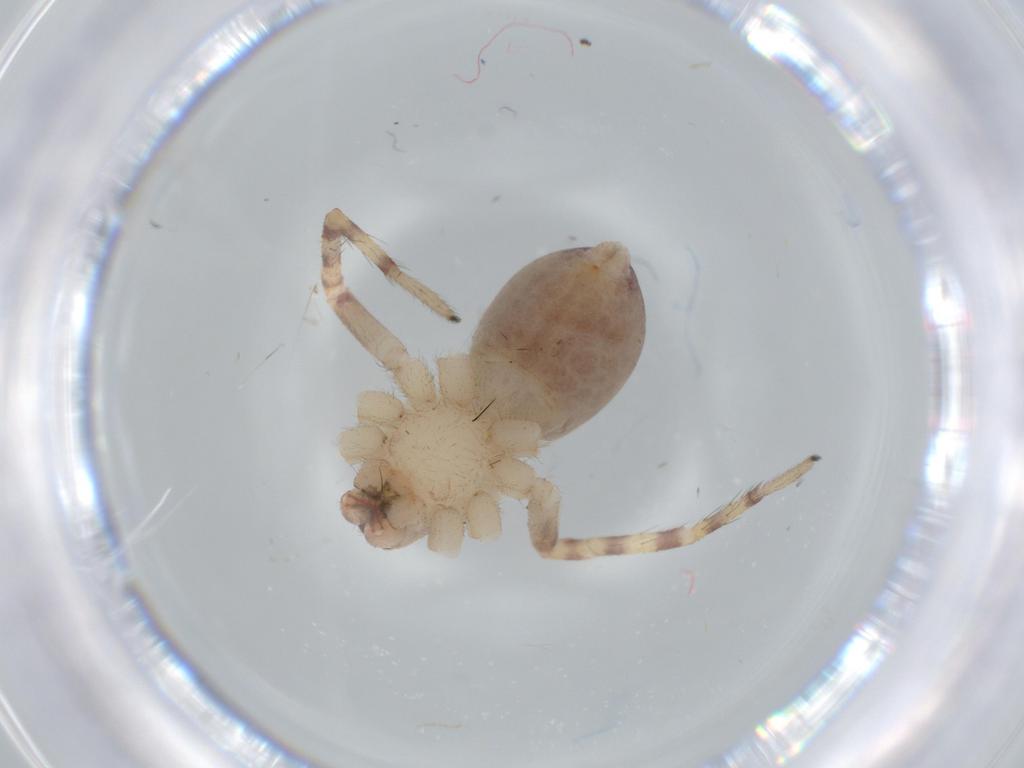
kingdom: Animalia
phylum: Arthropoda
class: Arachnida
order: Araneae
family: Corinnidae
